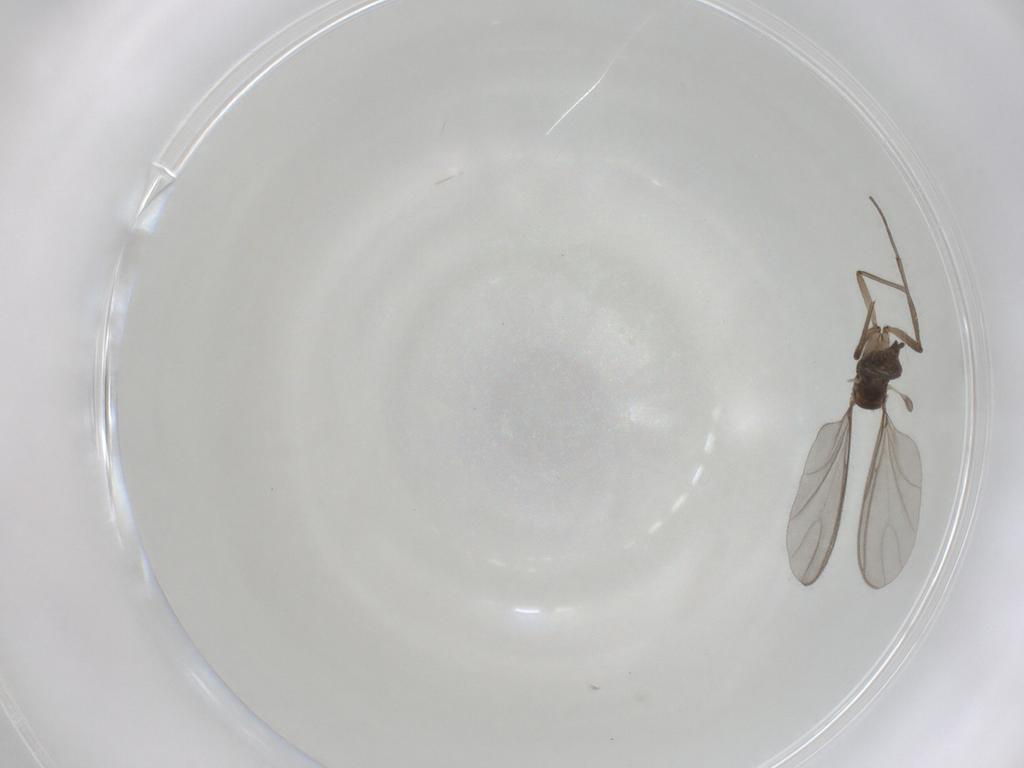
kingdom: Animalia
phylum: Arthropoda
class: Insecta
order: Diptera
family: Sciaridae
